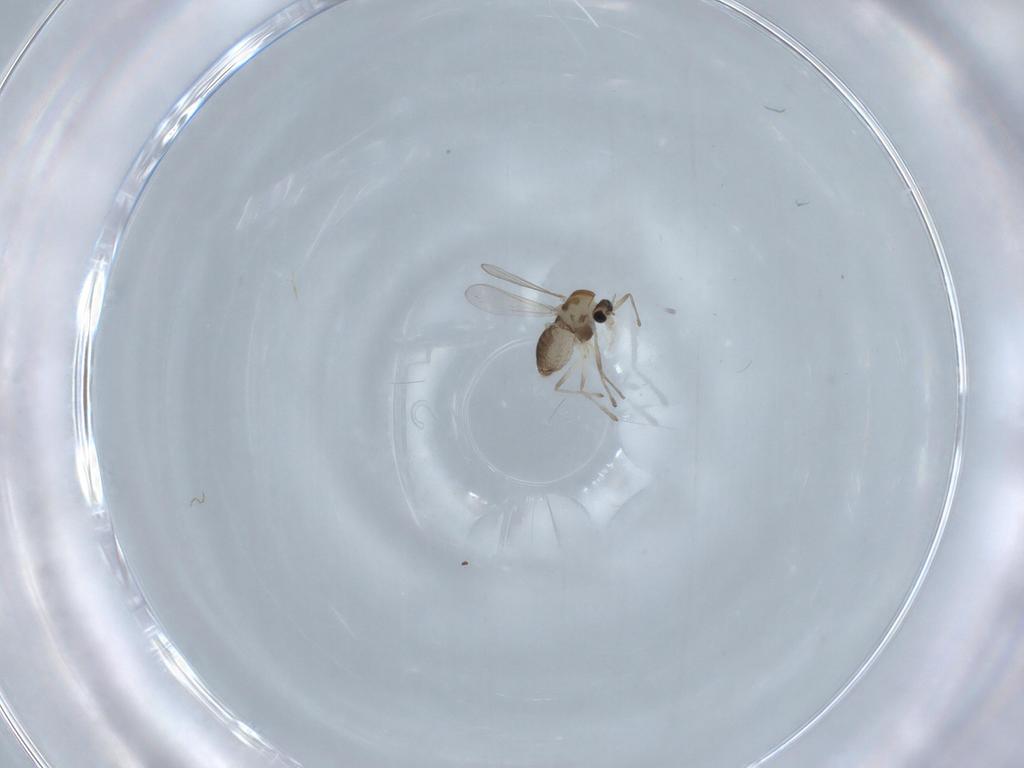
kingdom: Animalia
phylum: Arthropoda
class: Insecta
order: Diptera
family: Chironomidae
